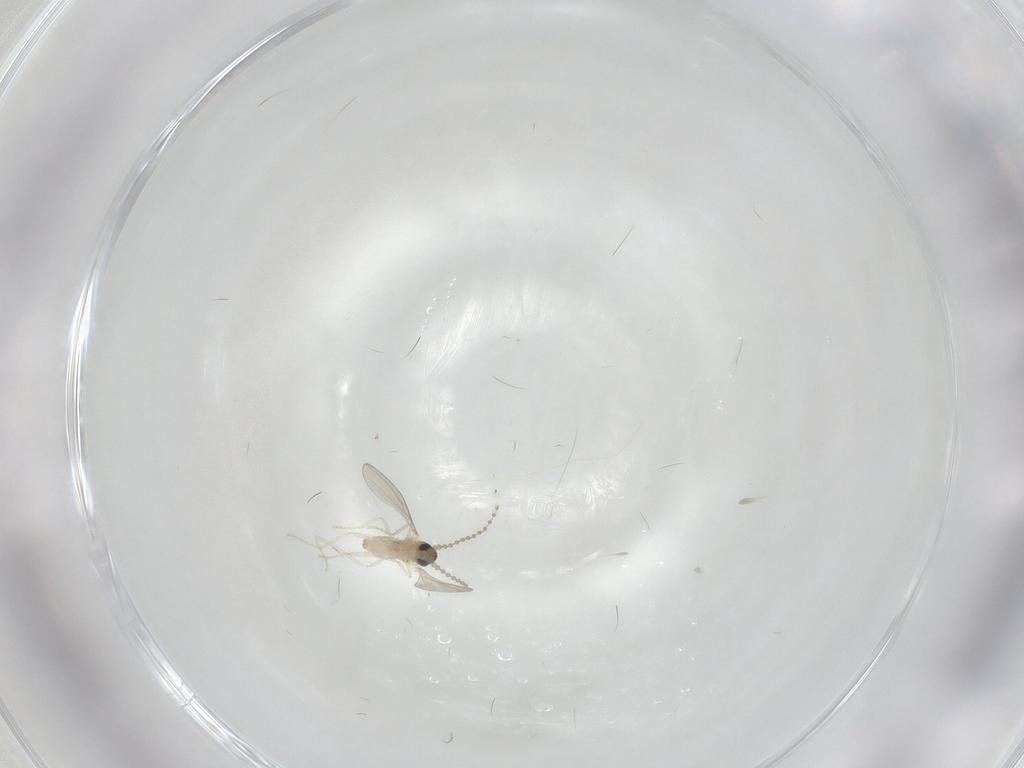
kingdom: Animalia
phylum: Arthropoda
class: Insecta
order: Diptera
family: Cecidomyiidae
